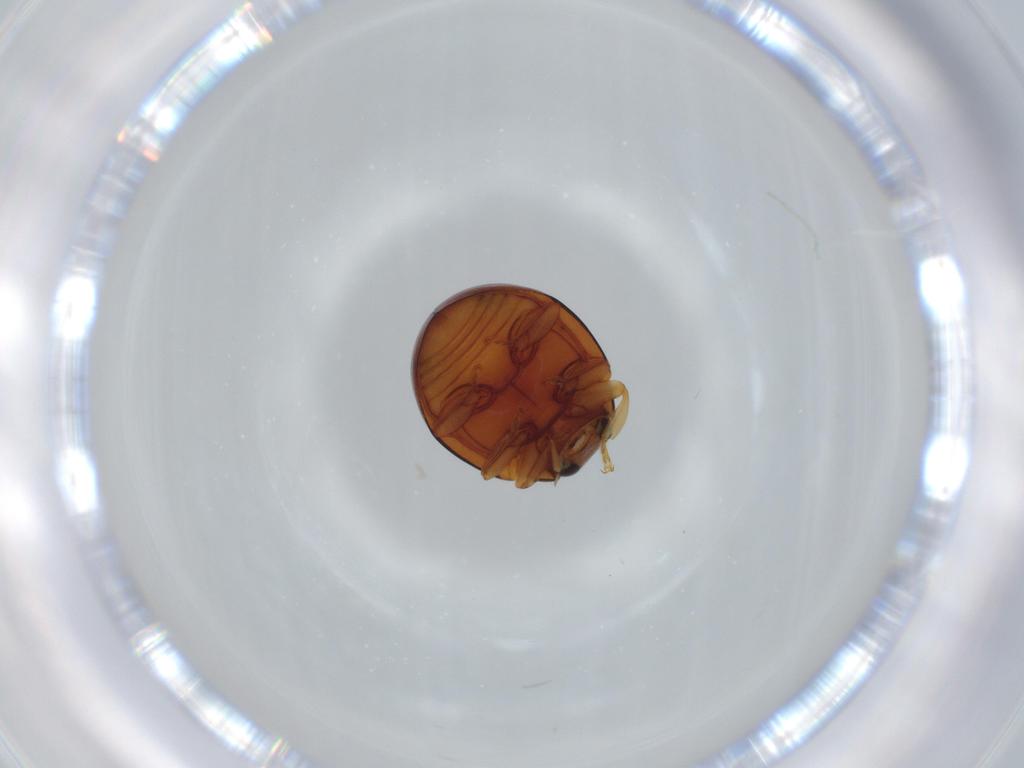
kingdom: Animalia
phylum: Arthropoda
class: Insecta
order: Coleoptera
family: Coccinellidae
